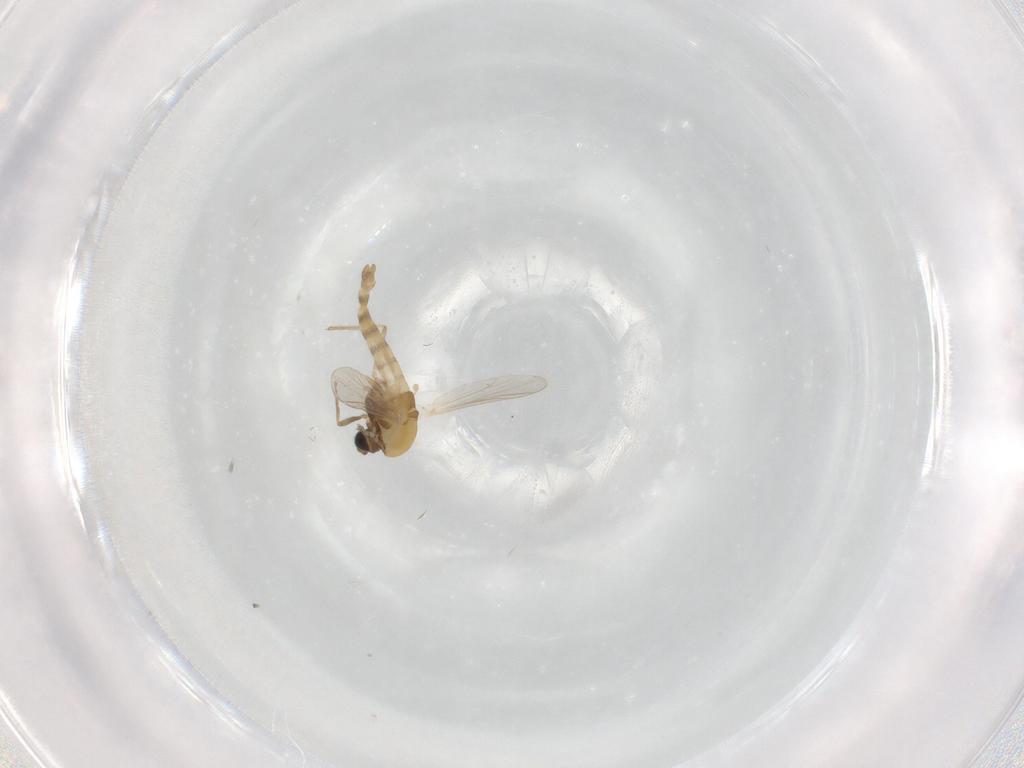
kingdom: Animalia
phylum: Arthropoda
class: Insecta
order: Diptera
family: Chironomidae
